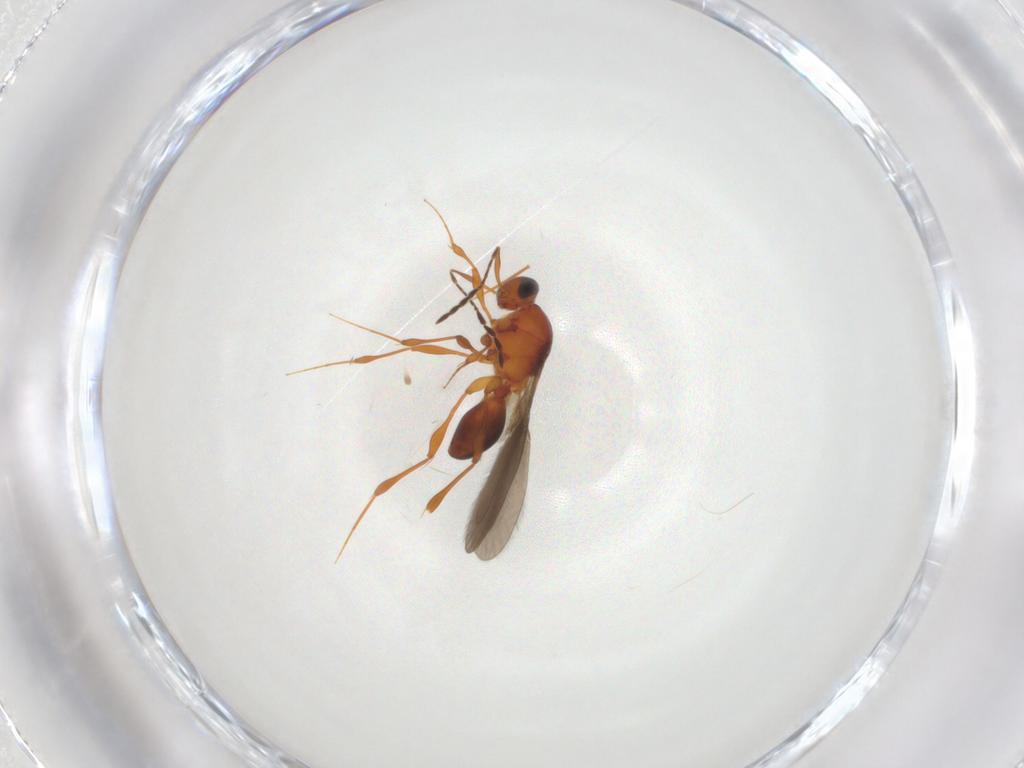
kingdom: Animalia
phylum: Arthropoda
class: Insecta
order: Hymenoptera
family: Platygastridae
